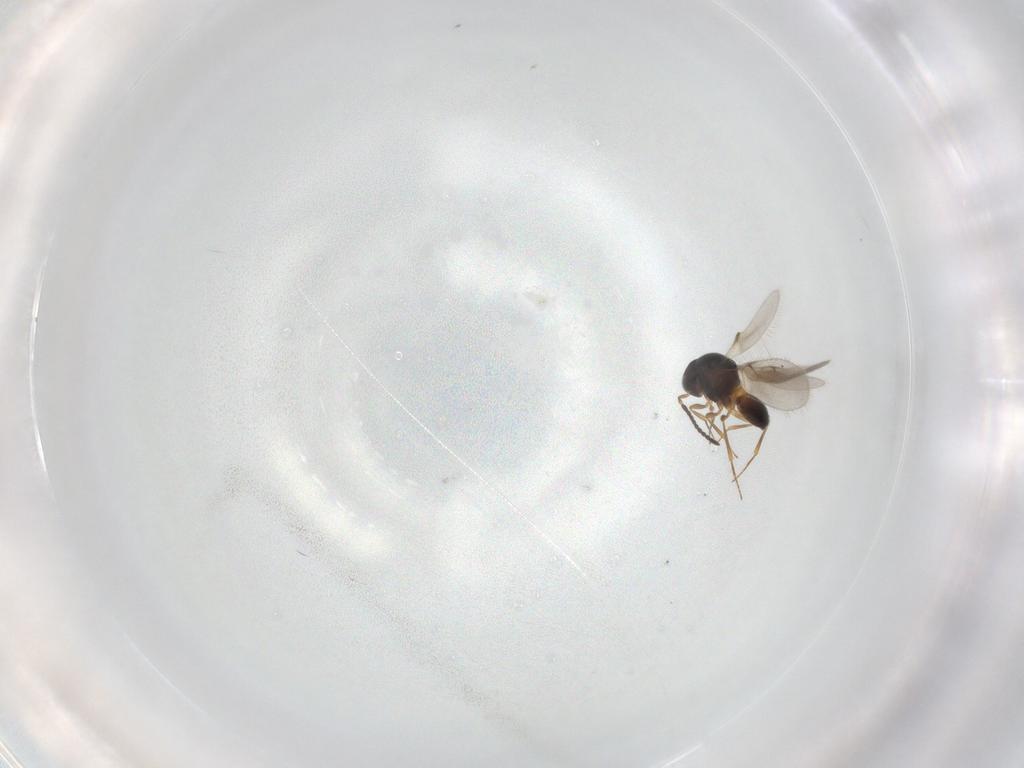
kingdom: Animalia
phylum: Arthropoda
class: Insecta
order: Hymenoptera
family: Scelionidae
